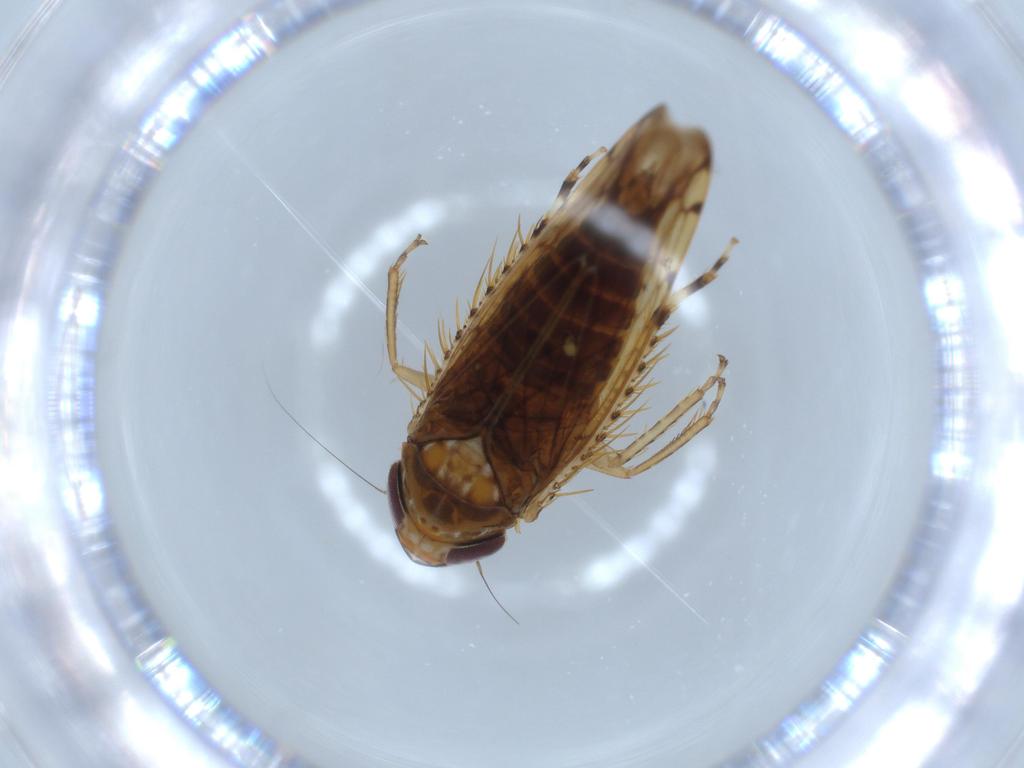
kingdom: Animalia
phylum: Arthropoda
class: Insecta
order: Hemiptera
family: Cicadellidae
